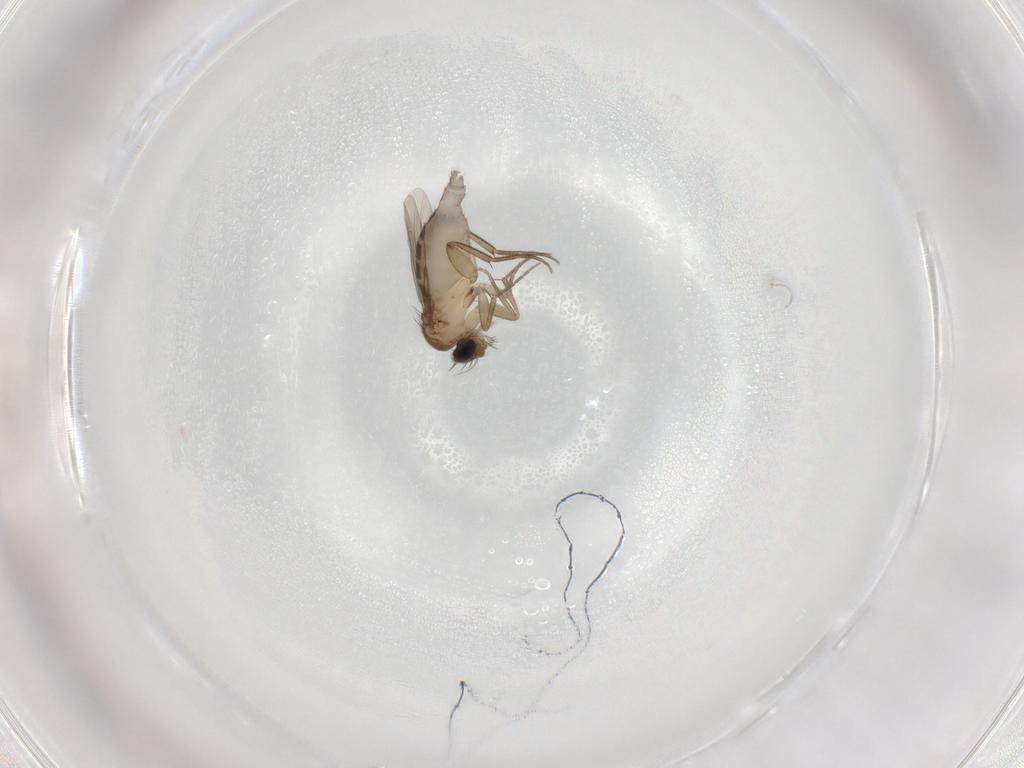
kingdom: Animalia
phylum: Arthropoda
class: Insecta
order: Diptera
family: Phoridae
